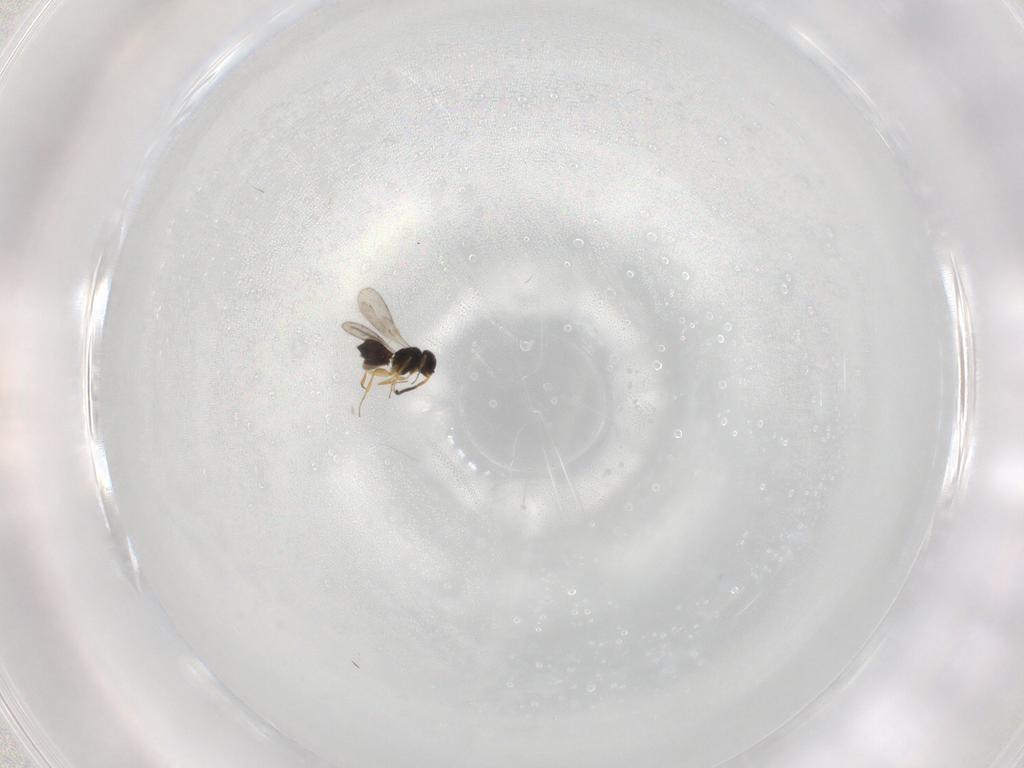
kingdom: Animalia
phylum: Arthropoda
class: Insecta
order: Hymenoptera
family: Scelionidae
